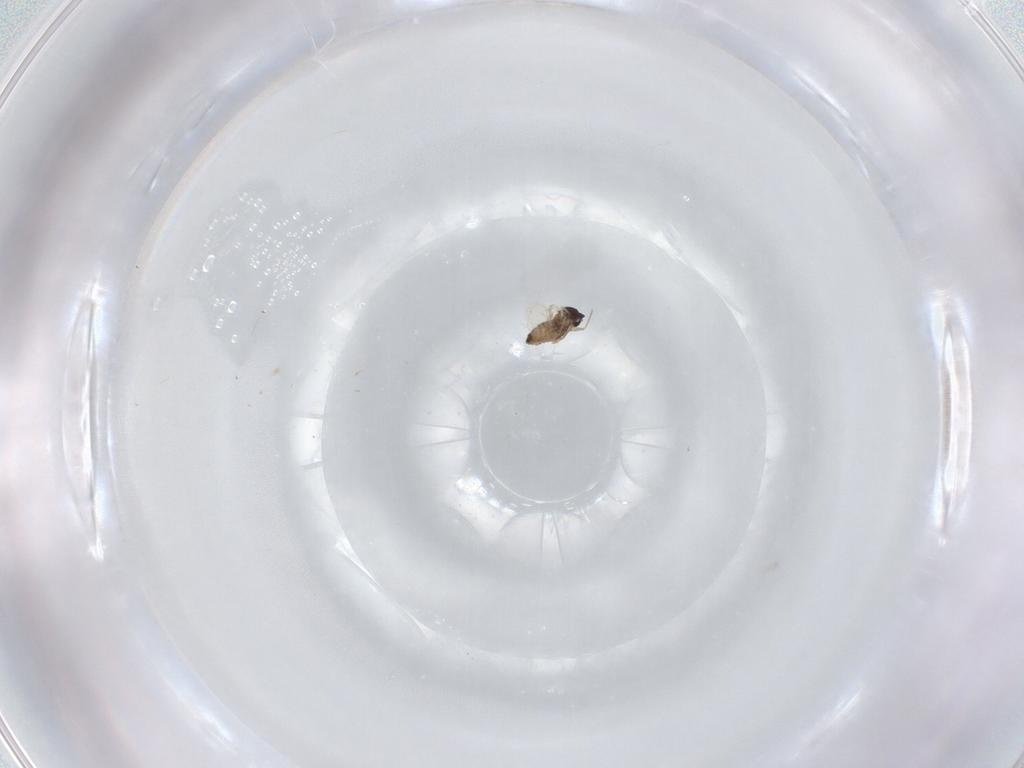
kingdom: Animalia
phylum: Arthropoda
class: Insecta
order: Diptera
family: Cecidomyiidae
